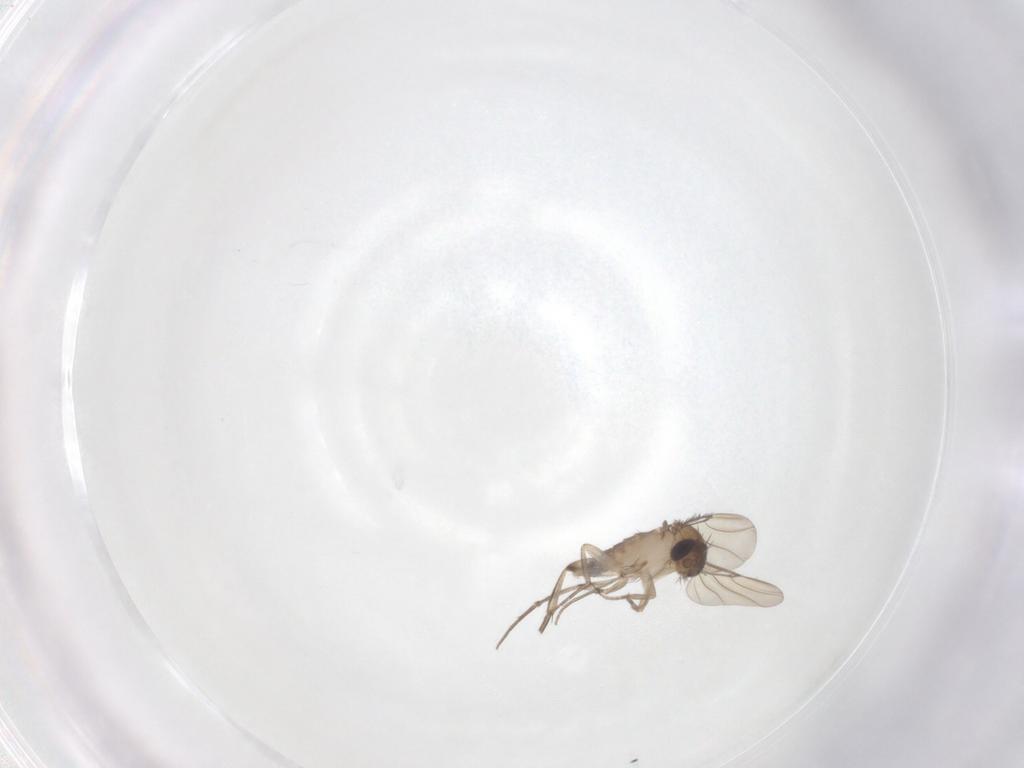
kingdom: Animalia
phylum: Arthropoda
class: Insecta
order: Diptera
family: Phoridae
